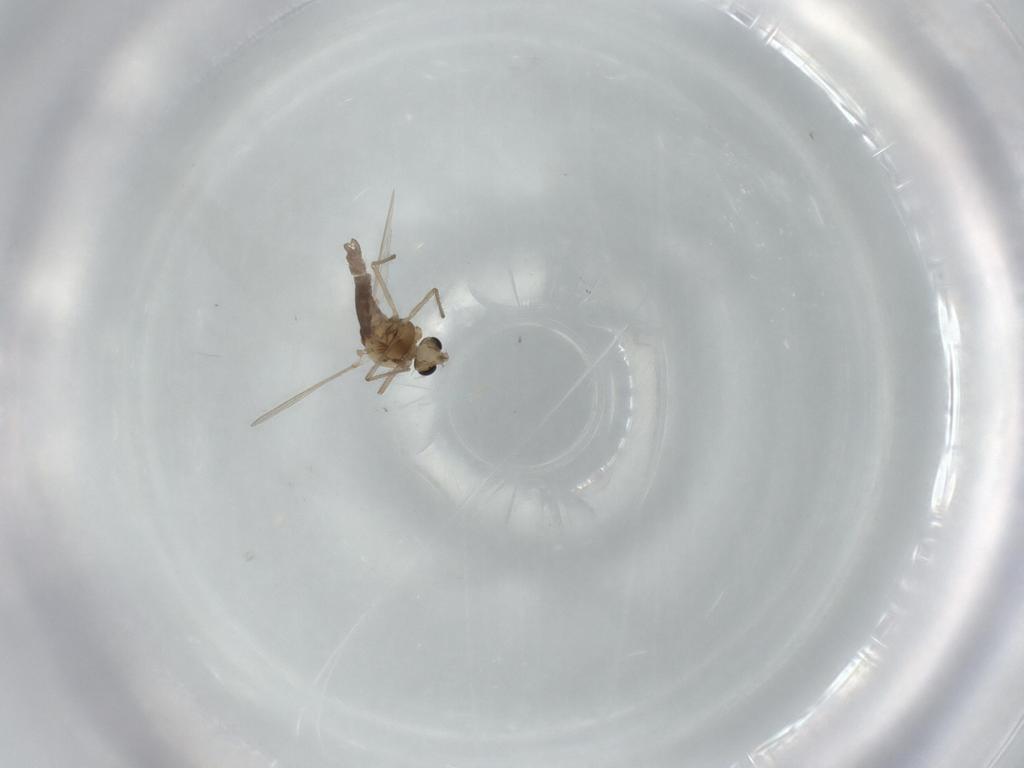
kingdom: Animalia
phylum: Arthropoda
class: Insecta
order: Diptera
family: Chironomidae
